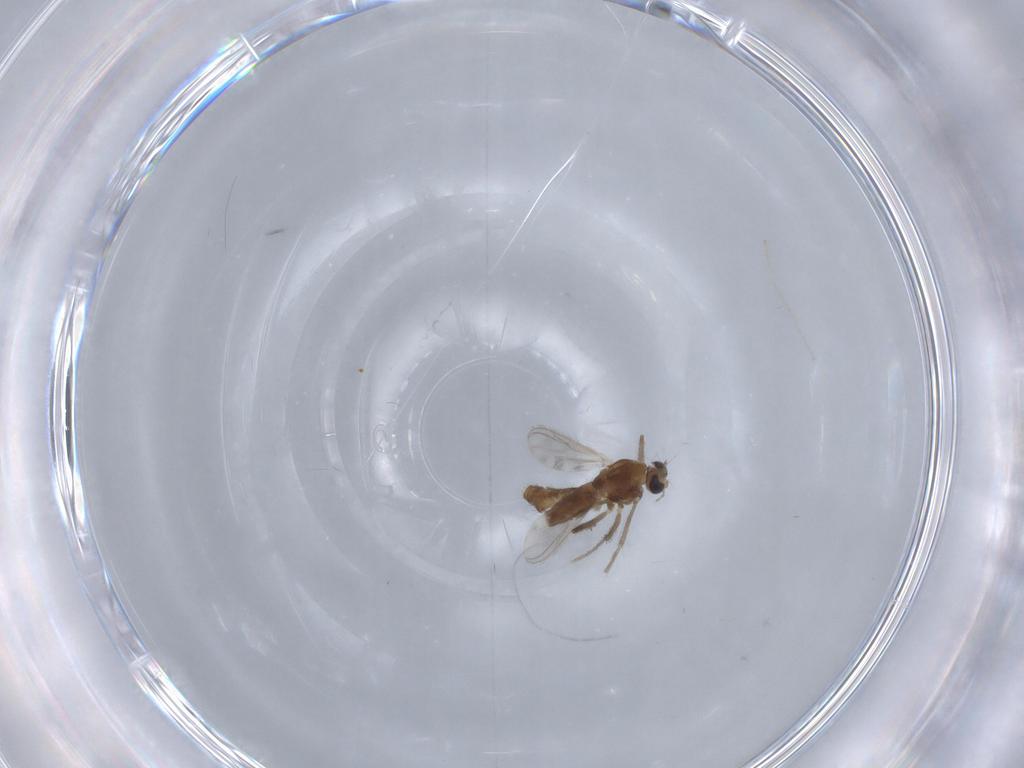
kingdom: Animalia
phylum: Arthropoda
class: Insecta
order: Diptera
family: Chironomidae
